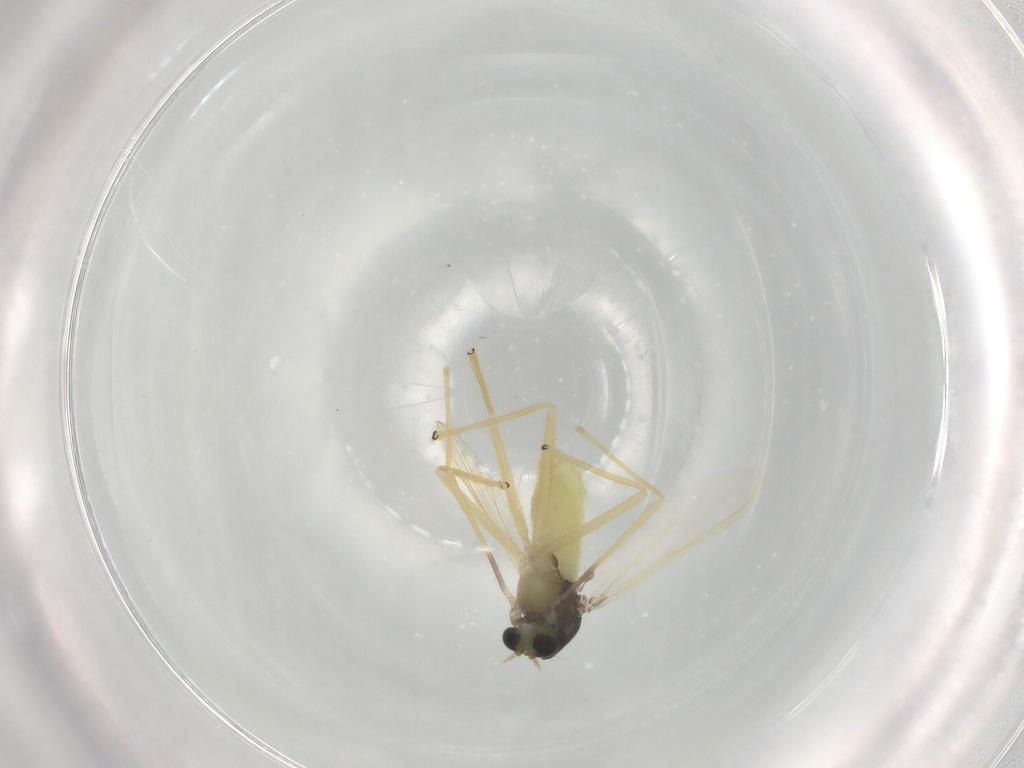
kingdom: Animalia
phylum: Arthropoda
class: Insecta
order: Diptera
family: Chironomidae
